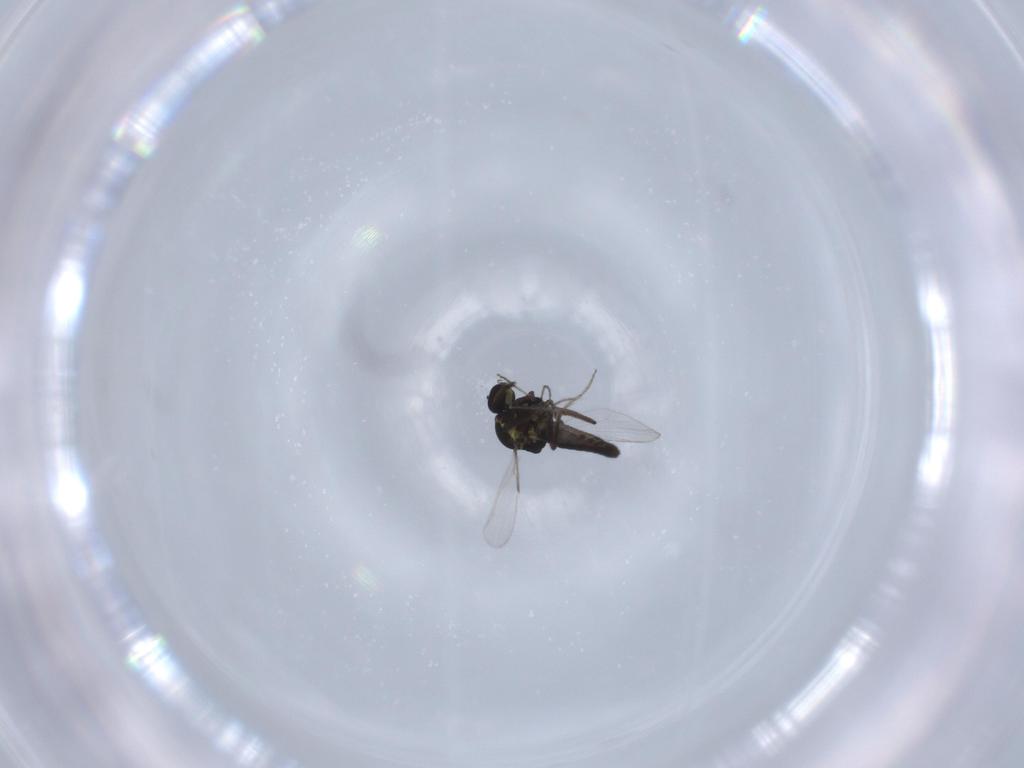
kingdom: Animalia
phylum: Arthropoda
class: Insecta
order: Diptera
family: Ceratopogonidae
